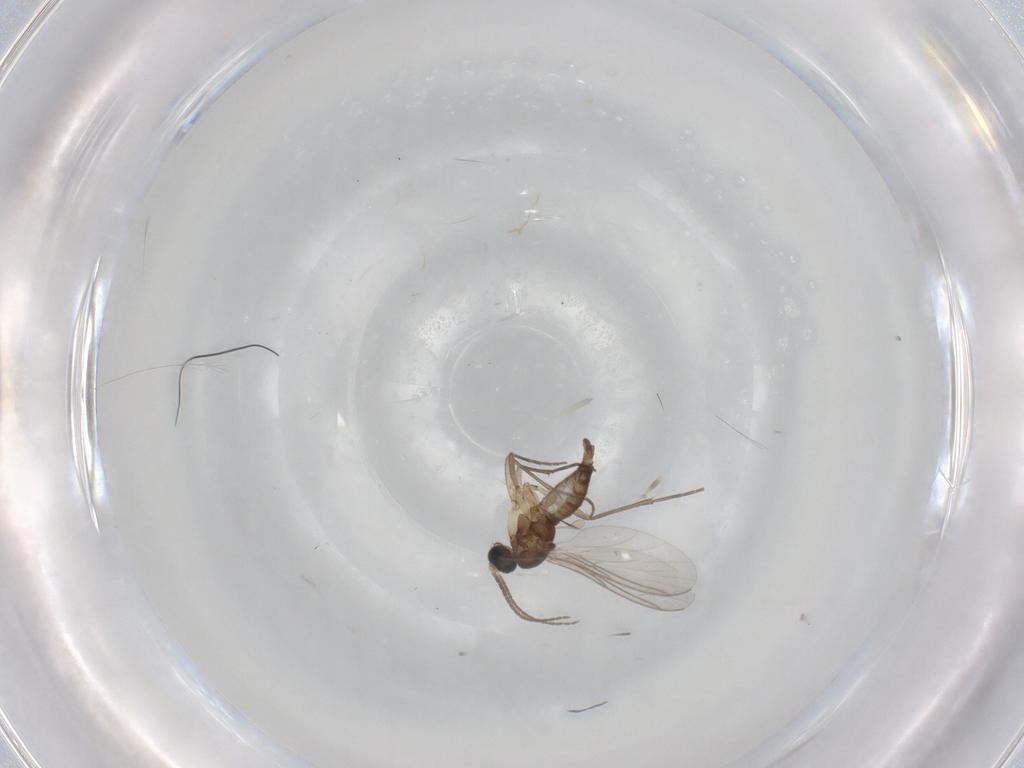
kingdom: Animalia
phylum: Arthropoda
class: Insecta
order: Diptera
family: Sciaridae
